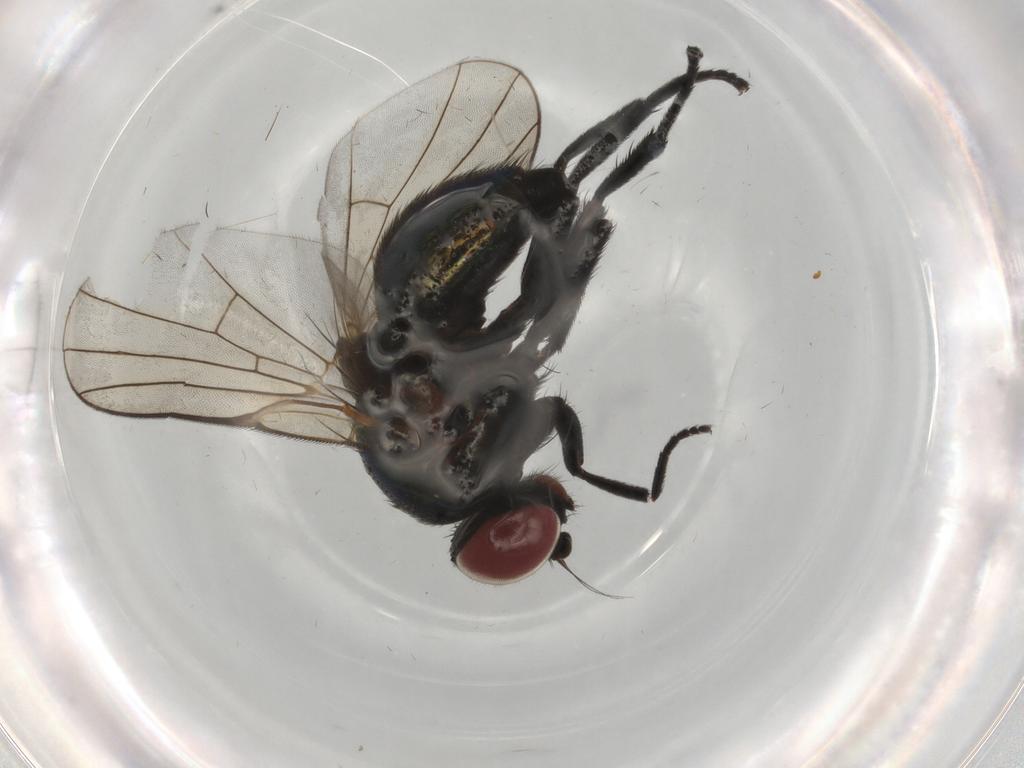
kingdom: Animalia
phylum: Arthropoda
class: Insecta
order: Diptera
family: Agromyzidae
